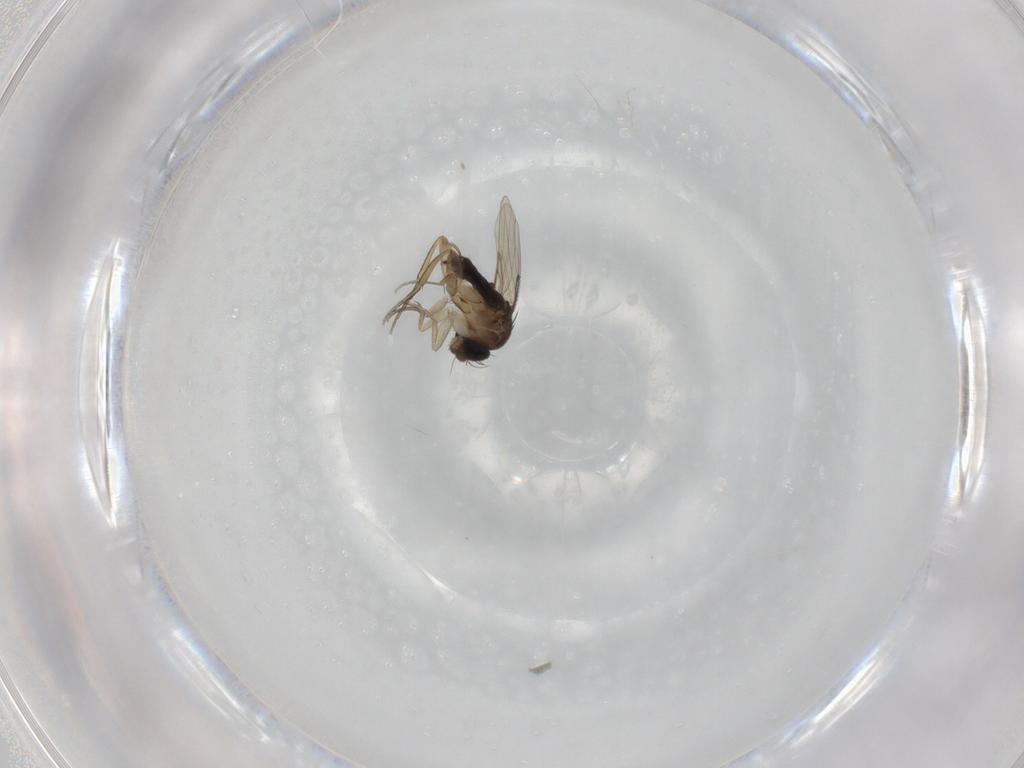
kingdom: Animalia
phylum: Arthropoda
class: Insecta
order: Diptera
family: Phoridae
